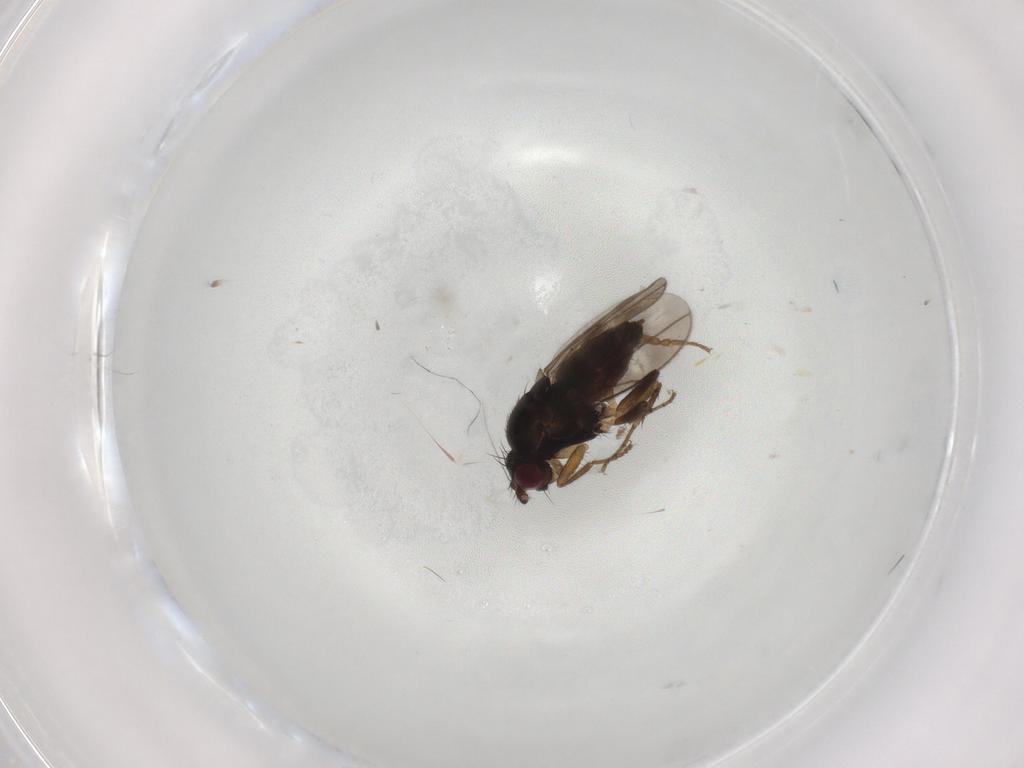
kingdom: Animalia
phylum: Arthropoda
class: Insecta
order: Diptera
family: Sphaeroceridae
